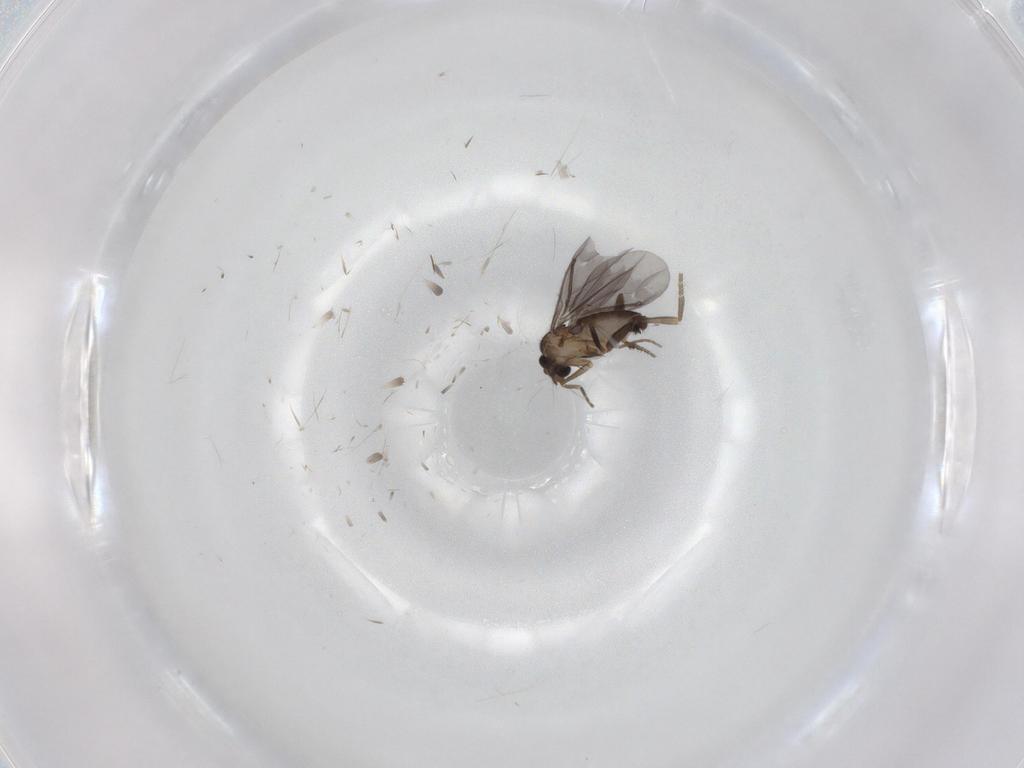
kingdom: Animalia
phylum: Arthropoda
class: Insecta
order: Diptera
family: Phoridae
